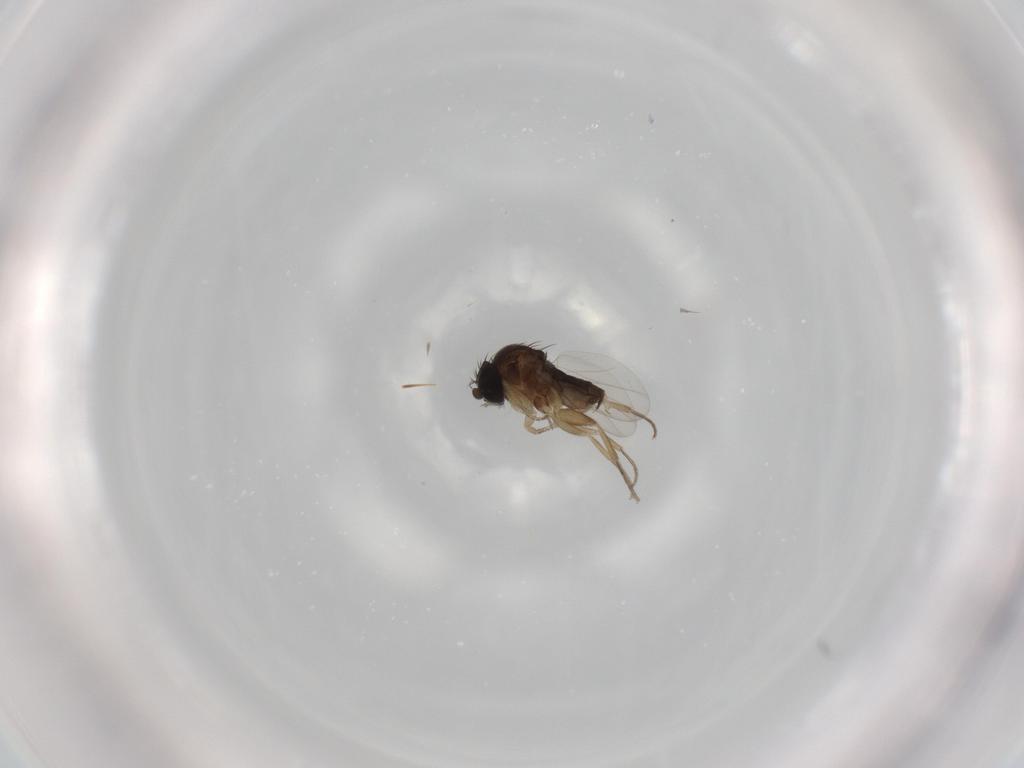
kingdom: Animalia
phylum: Arthropoda
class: Insecta
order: Diptera
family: Chironomidae
